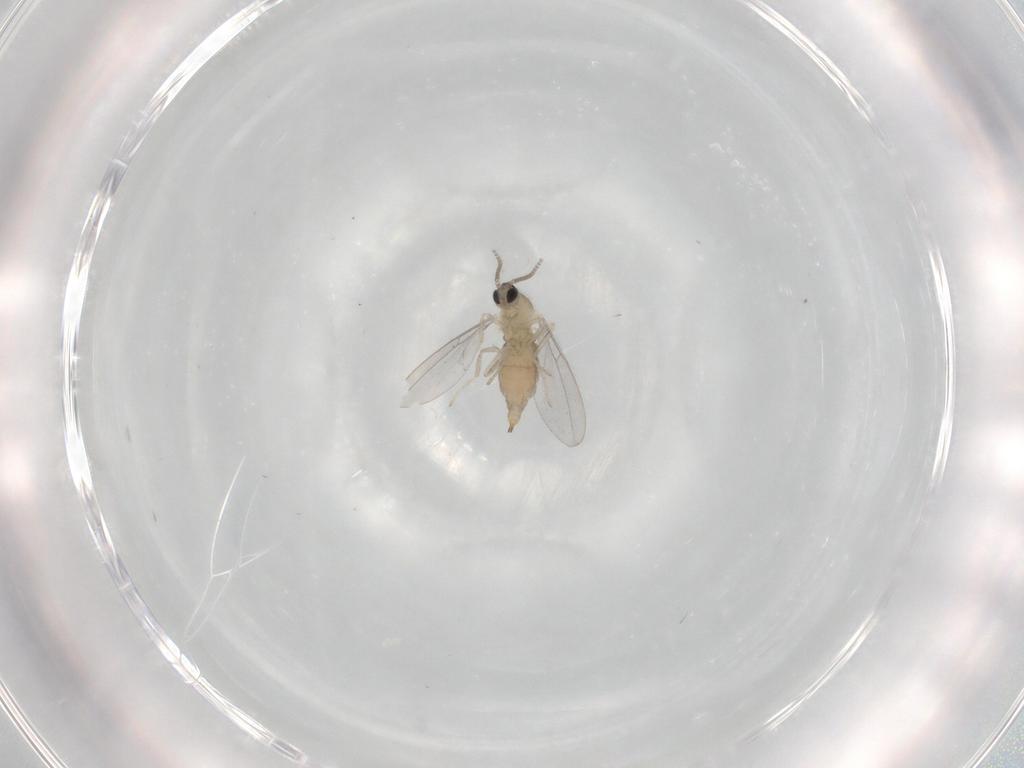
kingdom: Animalia
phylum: Arthropoda
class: Insecta
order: Diptera
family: Cecidomyiidae
